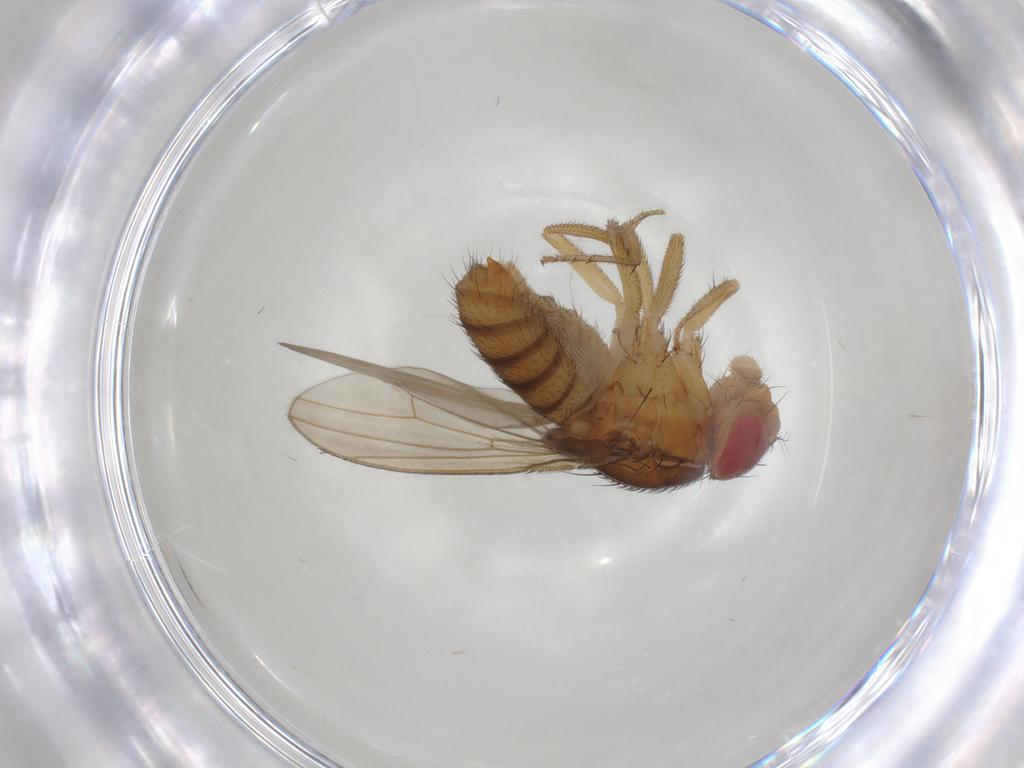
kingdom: Animalia
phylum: Arthropoda
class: Insecta
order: Diptera
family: Drosophilidae
